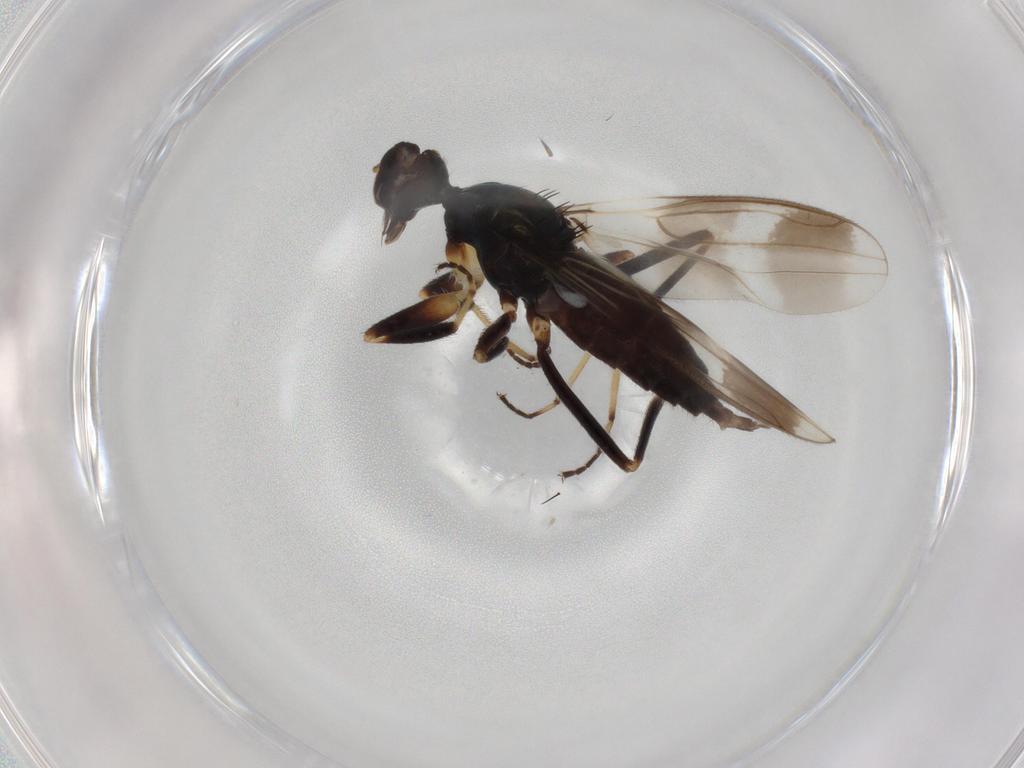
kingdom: Animalia
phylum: Arthropoda
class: Insecta
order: Diptera
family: Hybotidae
